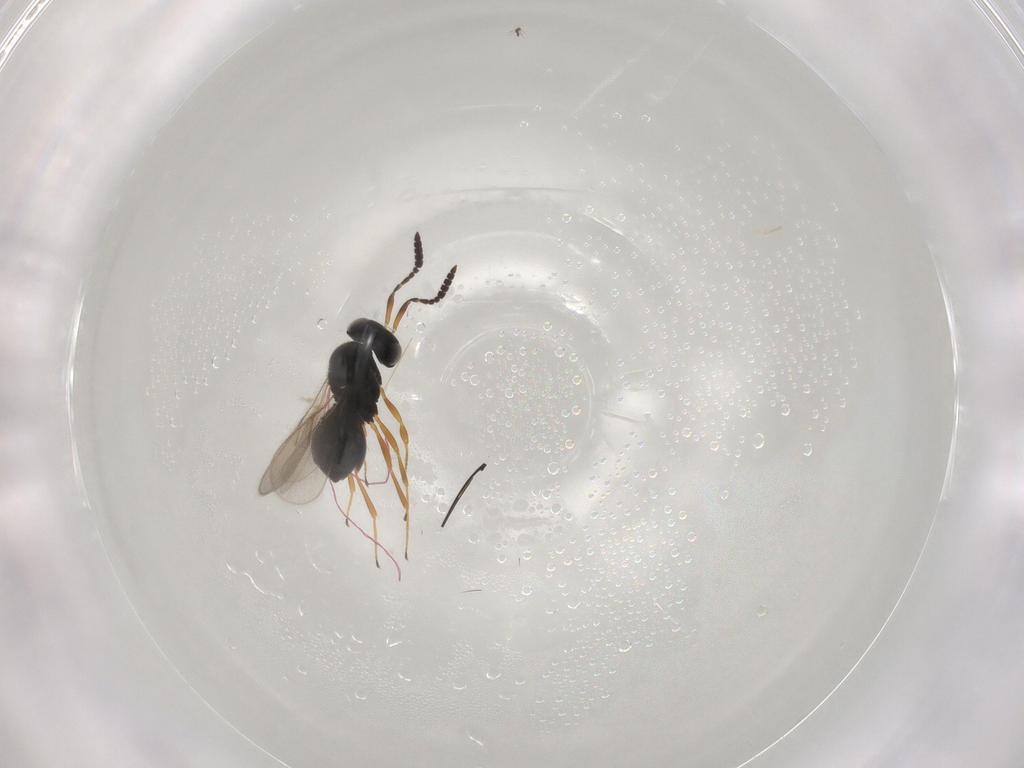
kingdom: Animalia
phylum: Arthropoda
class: Insecta
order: Hymenoptera
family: Scelionidae
